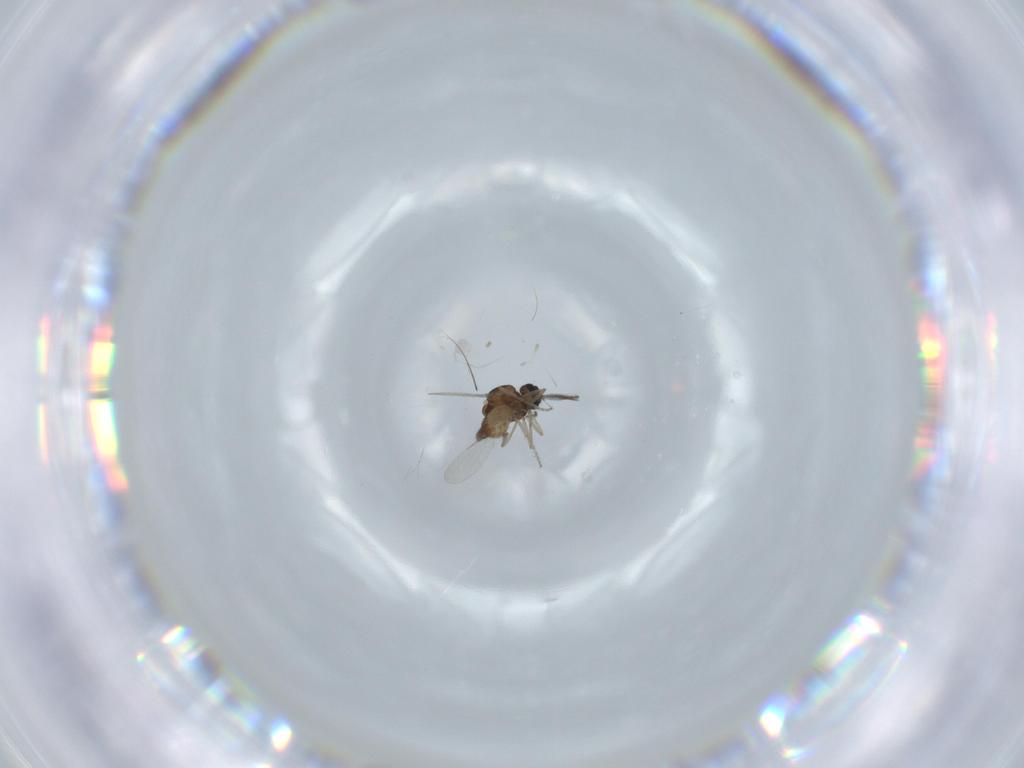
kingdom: Animalia
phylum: Arthropoda
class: Insecta
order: Diptera
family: Ceratopogonidae
